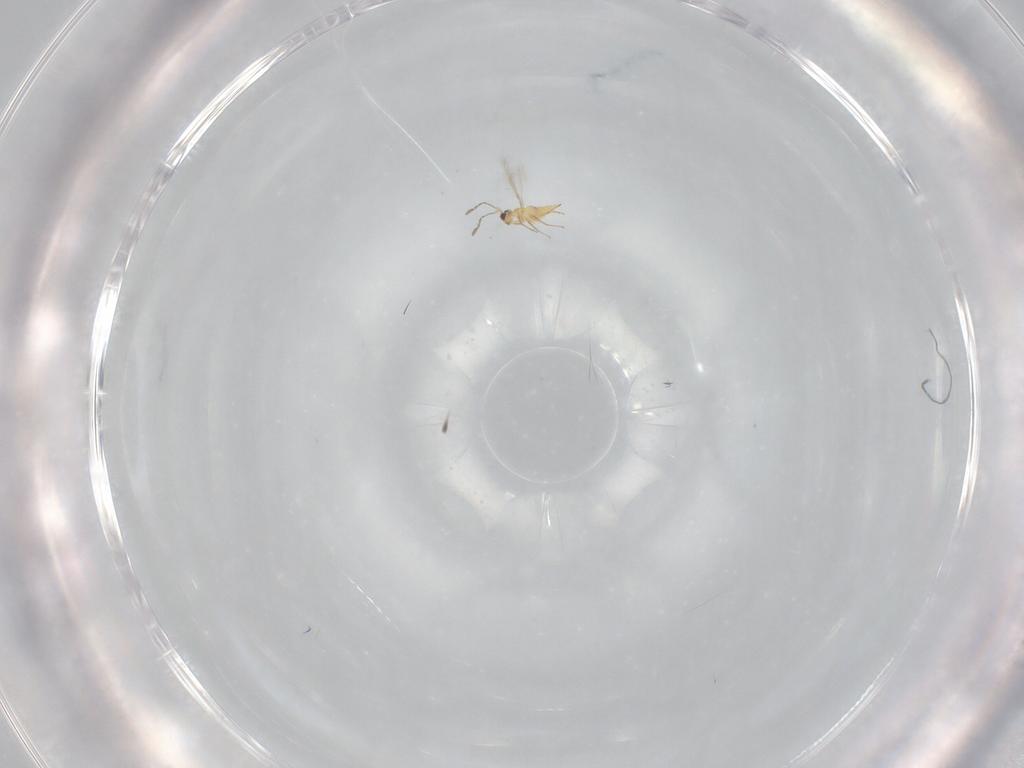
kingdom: Animalia
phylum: Arthropoda
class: Insecta
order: Hymenoptera
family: Mymaridae
